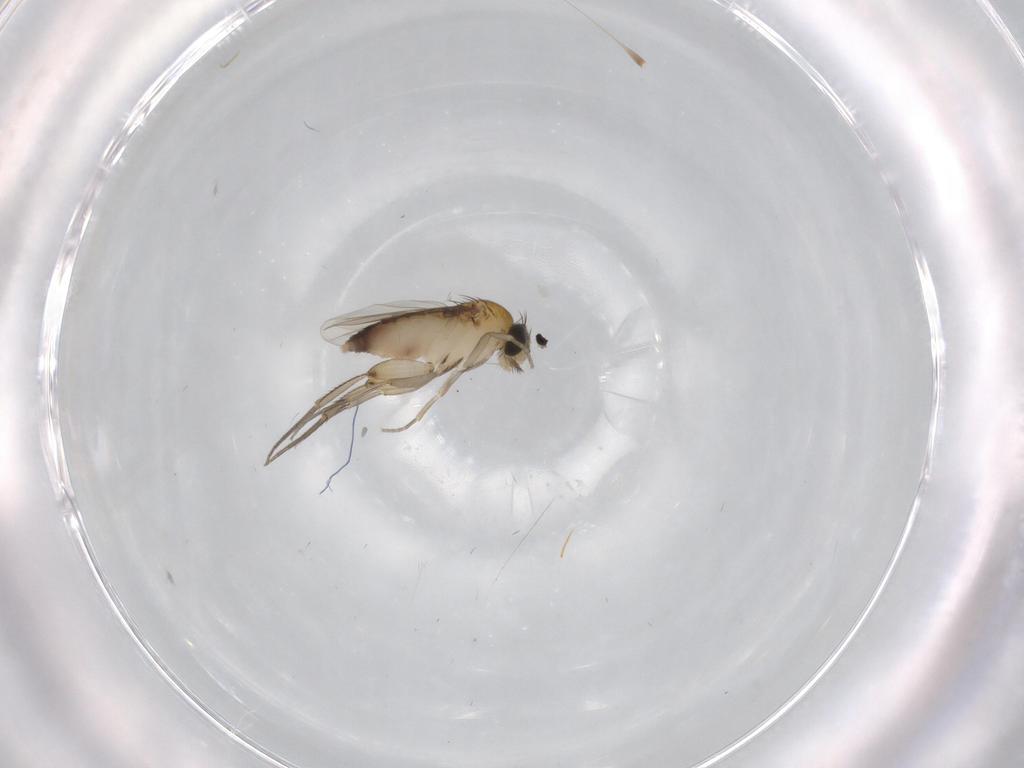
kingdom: Animalia
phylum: Arthropoda
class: Insecta
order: Diptera
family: Phoridae
